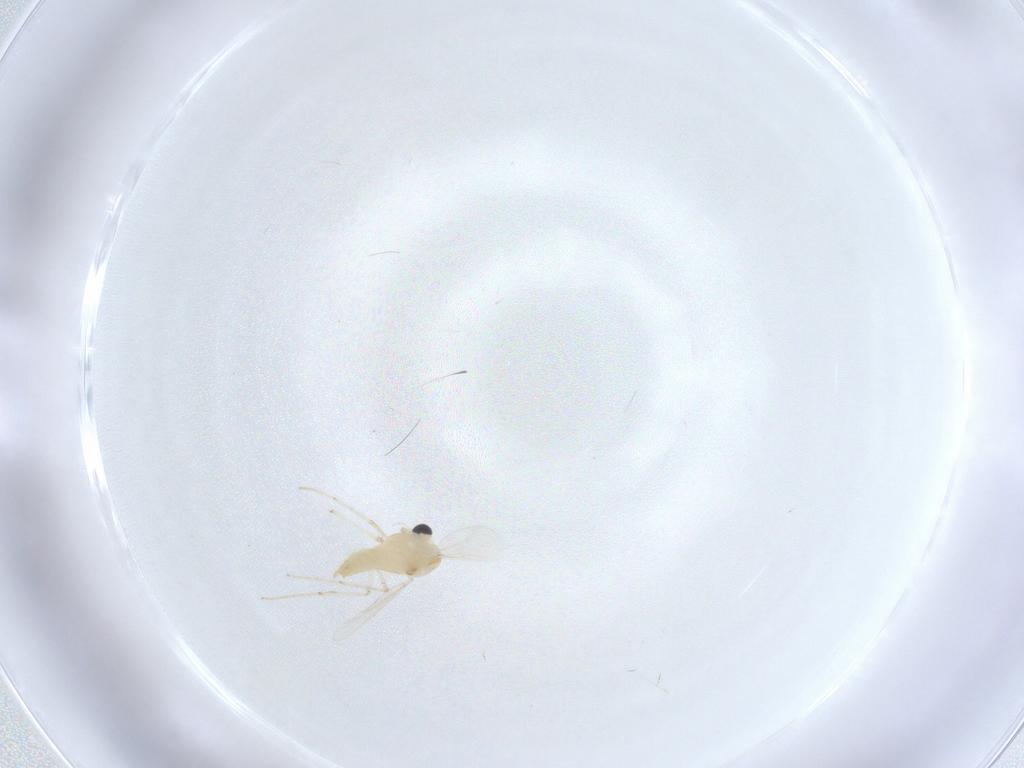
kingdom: Animalia
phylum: Arthropoda
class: Insecta
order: Diptera
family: Chironomidae
